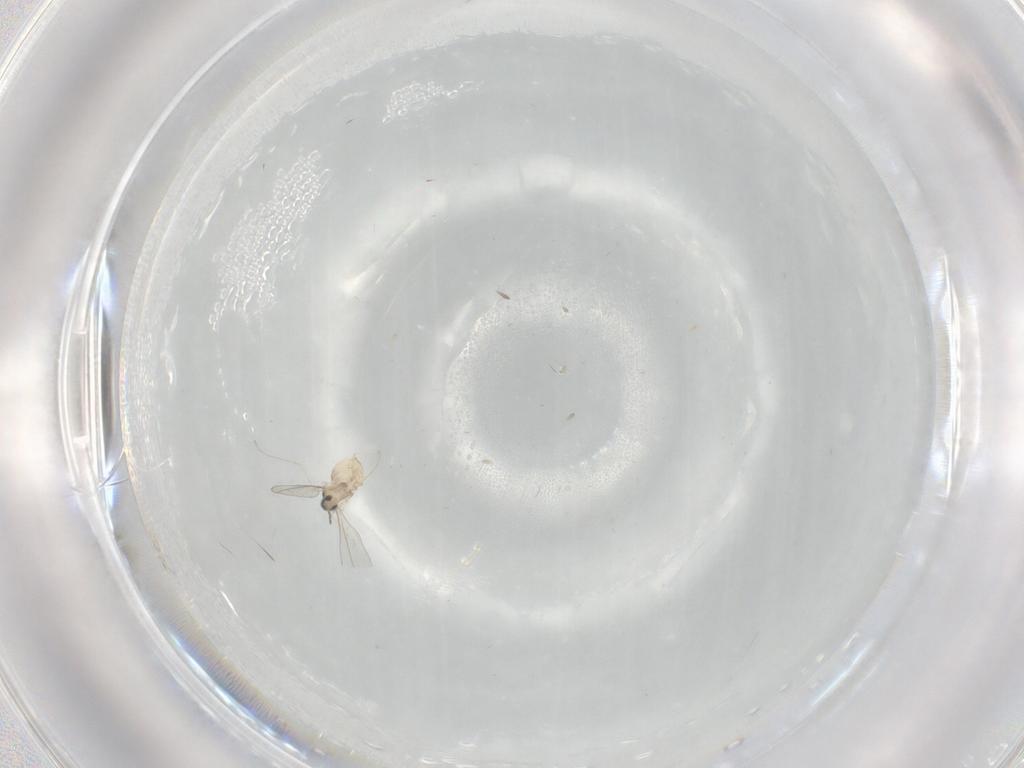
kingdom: Animalia
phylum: Arthropoda
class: Insecta
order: Diptera
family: Cecidomyiidae
